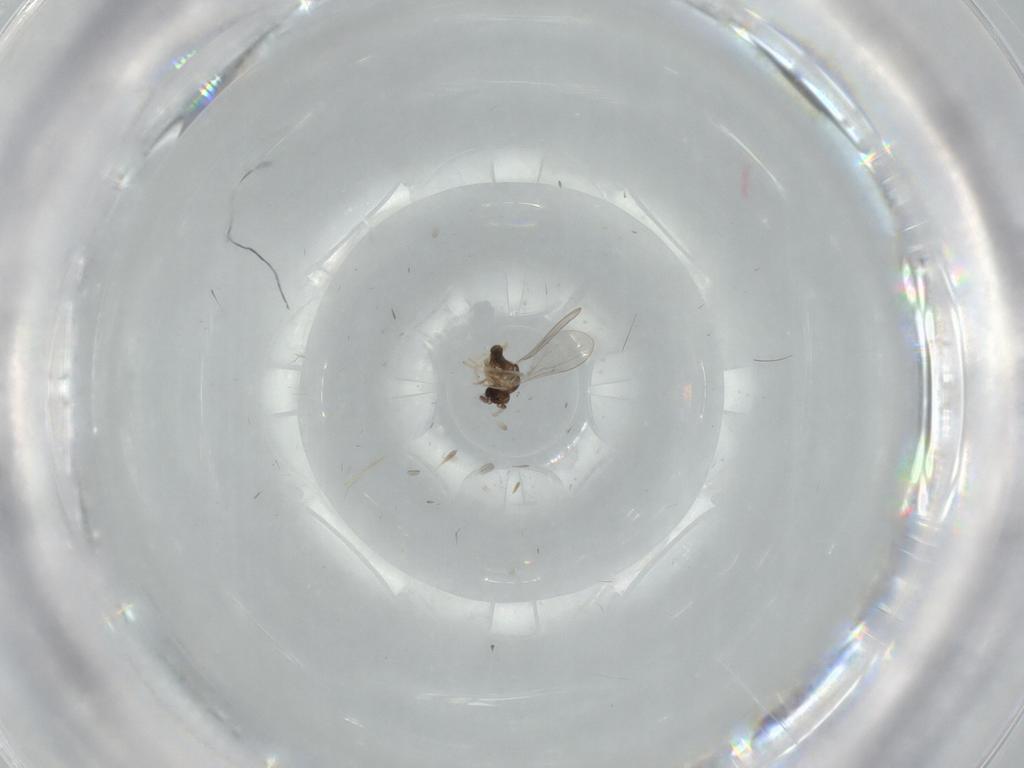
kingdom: Animalia
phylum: Arthropoda
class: Insecta
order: Diptera
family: Cecidomyiidae
